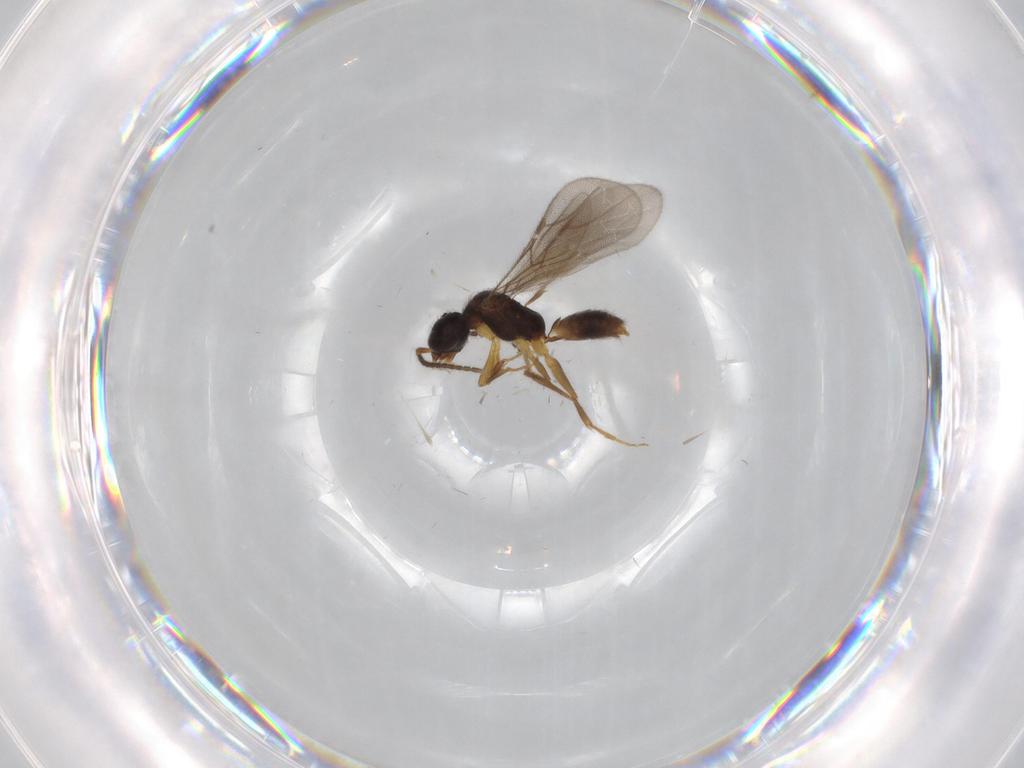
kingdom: Animalia
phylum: Arthropoda
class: Insecta
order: Hymenoptera
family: Bethylidae
